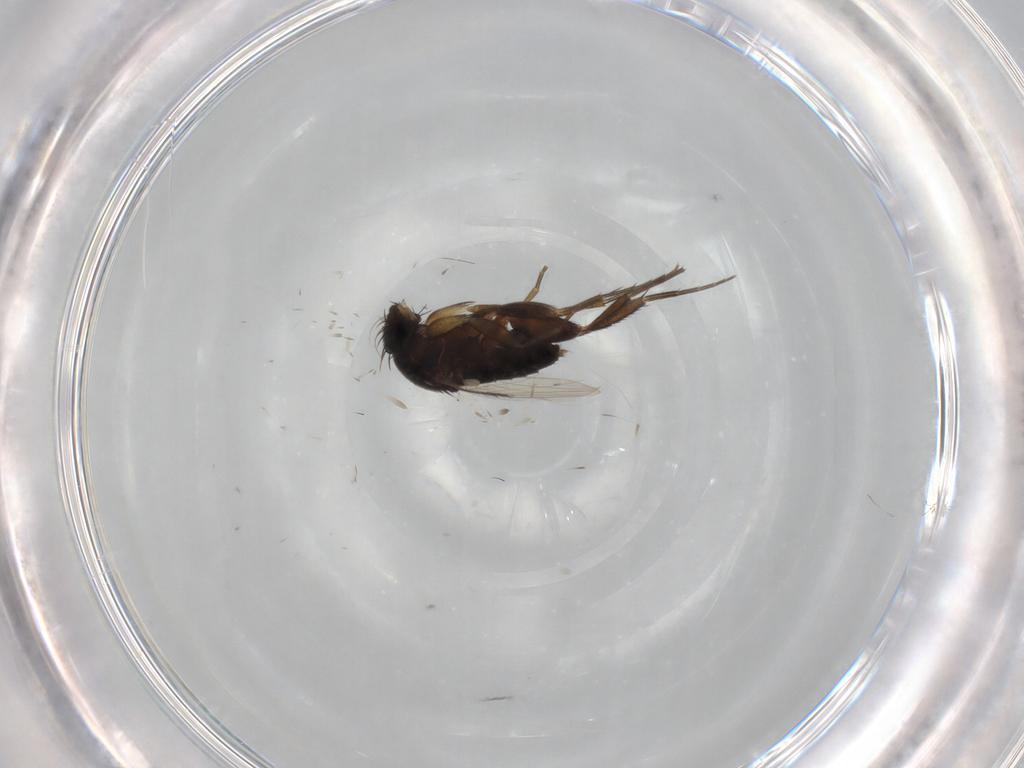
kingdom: Animalia
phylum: Arthropoda
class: Insecta
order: Diptera
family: Phoridae
